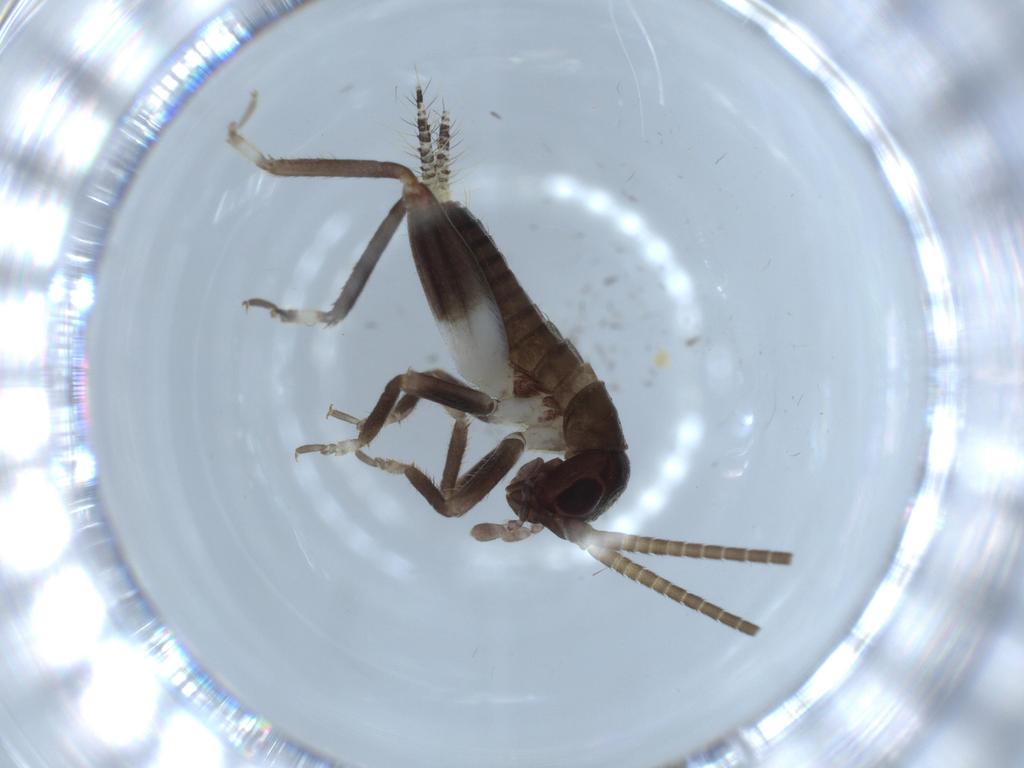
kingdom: Animalia
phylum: Arthropoda
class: Insecta
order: Orthoptera
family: Gryllidae
